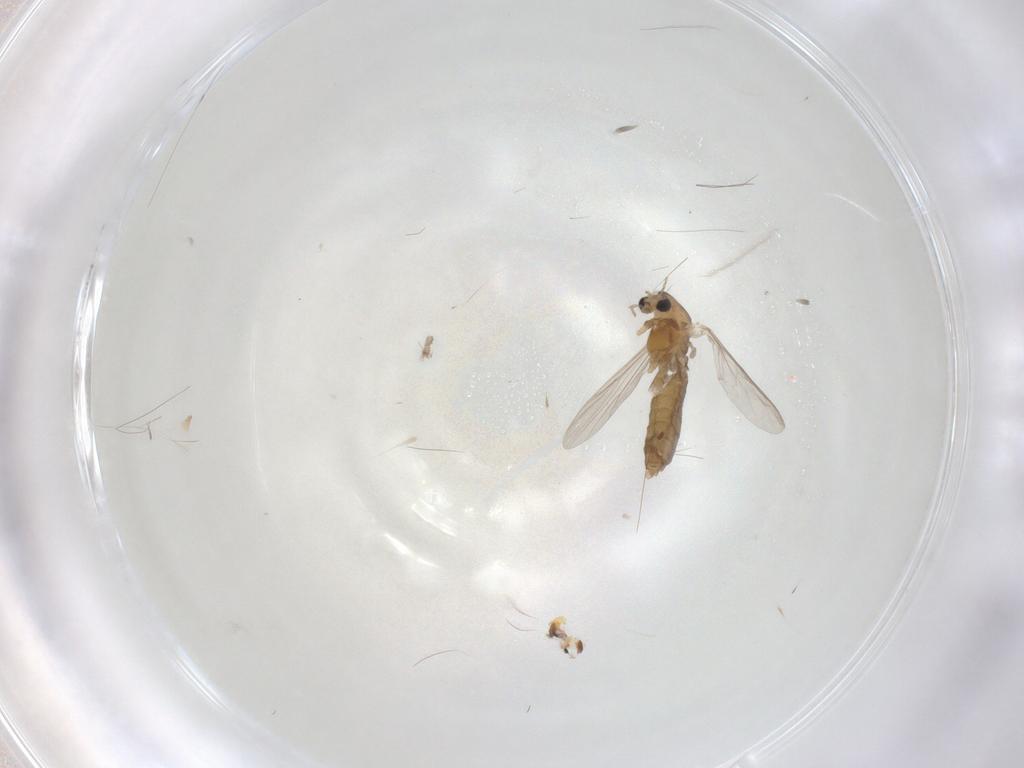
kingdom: Animalia
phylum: Arthropoda
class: Insecta
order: Diptera
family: Chironomidae
